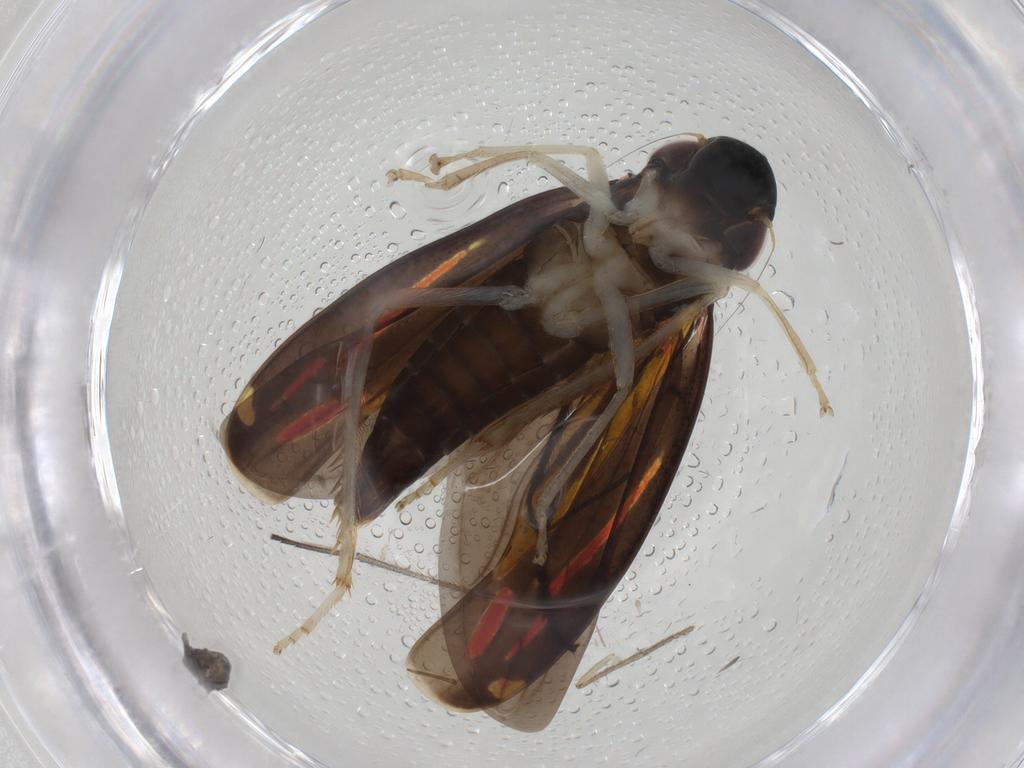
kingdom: Animalia
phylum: Arthropoda
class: Insecta
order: Hemiptera
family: Cicadellidae
